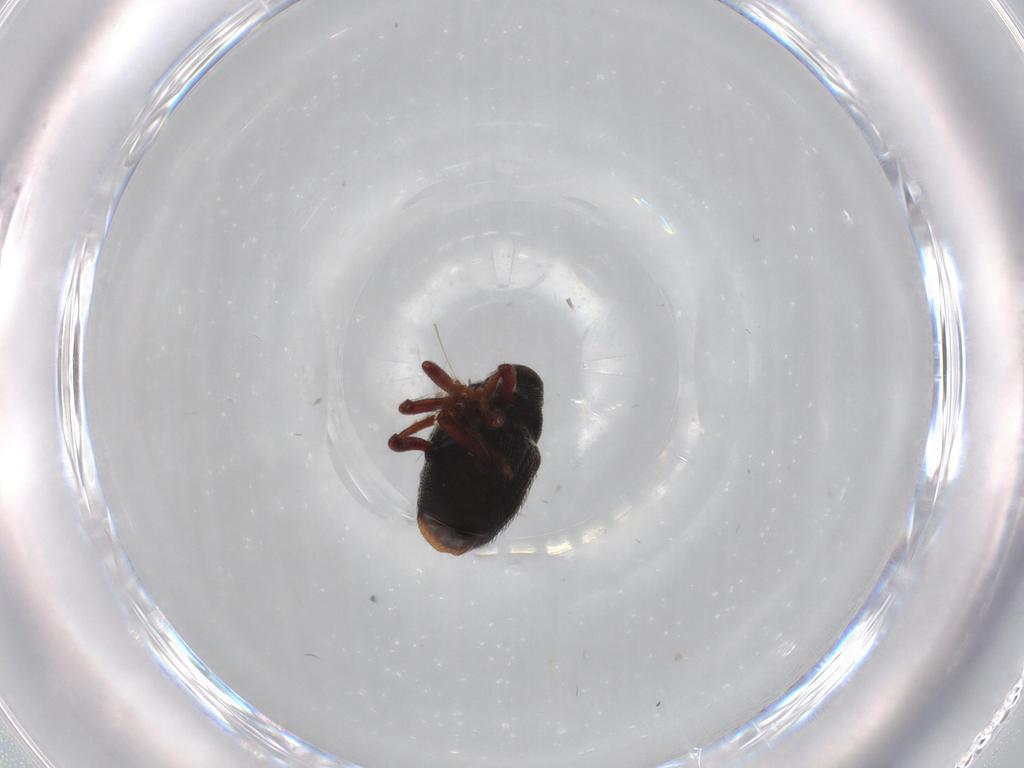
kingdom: Animalia
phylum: Arthropoda
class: Insecta
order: Coleoptera
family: Curculionidae
